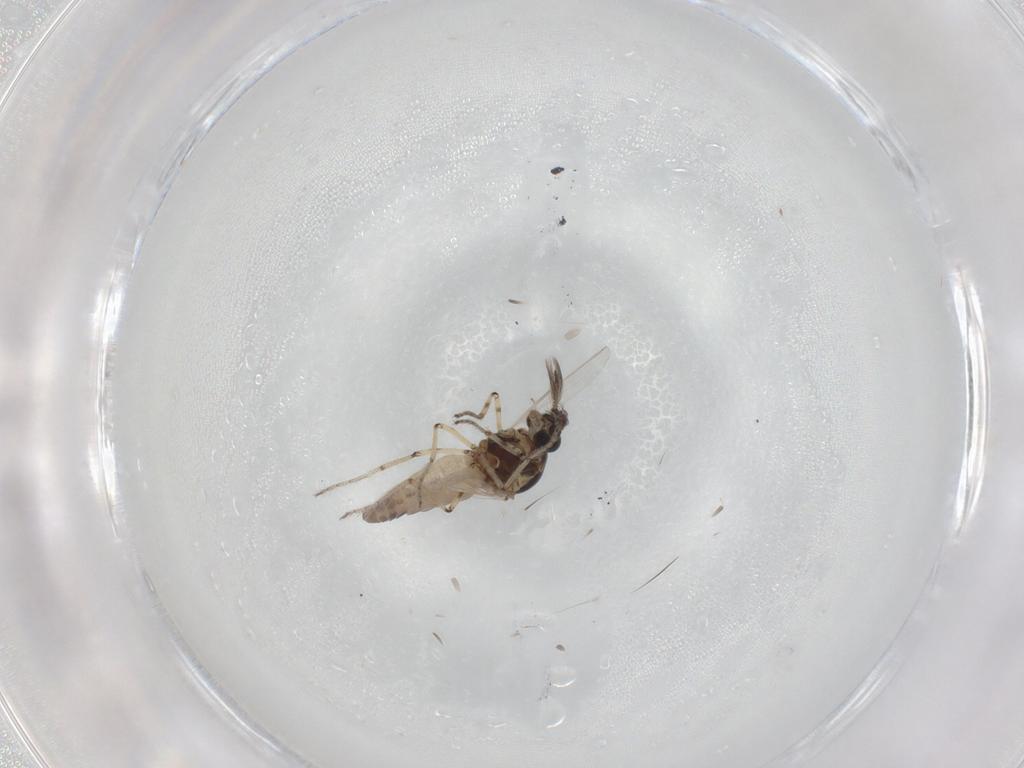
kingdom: Animalia
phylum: Arthropoda
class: Insecta
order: Diptera
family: Ceratopogonidae
